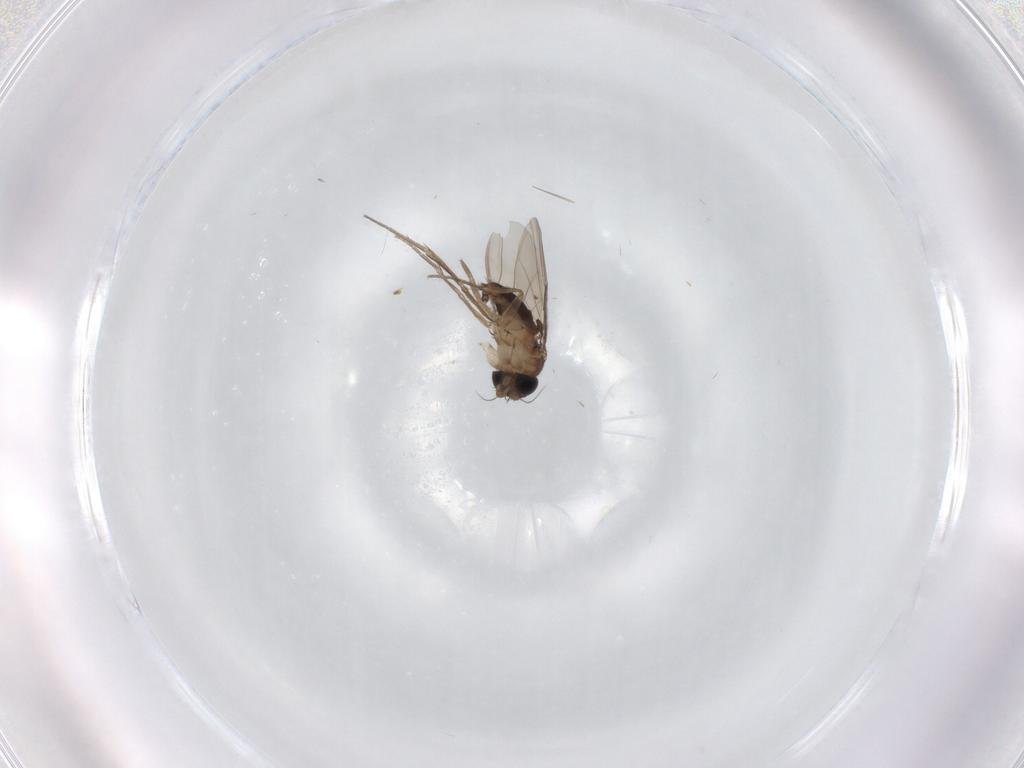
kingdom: Animalia
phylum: Arthropoda
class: Insecta
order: Diptera
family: Phoridae
